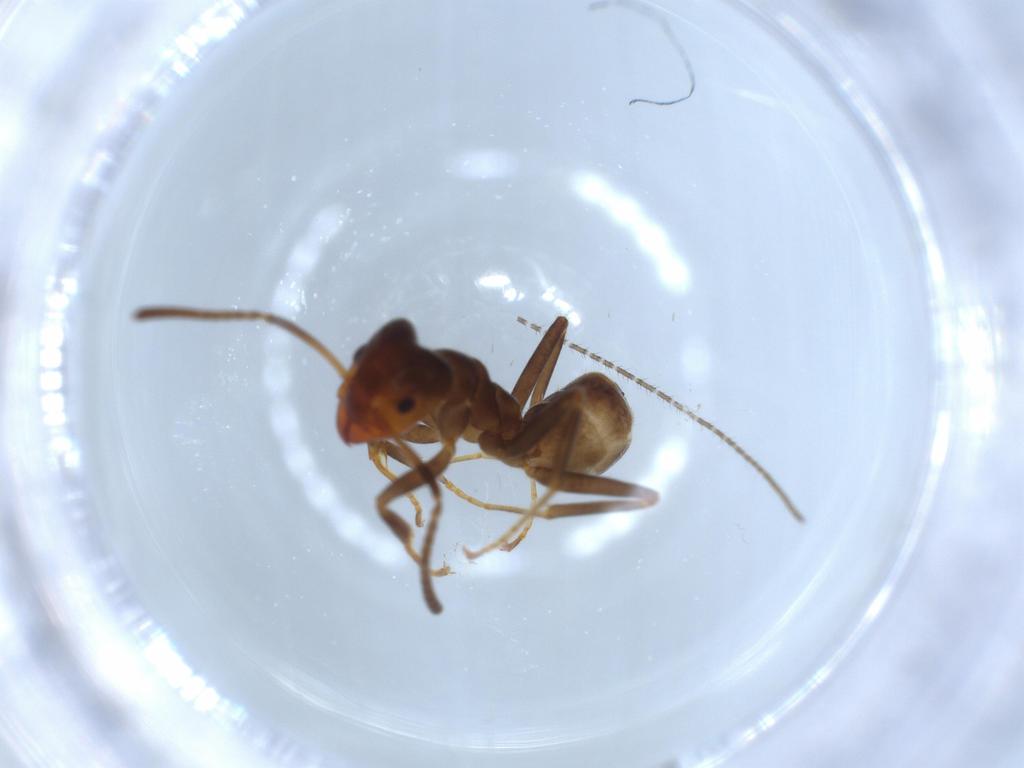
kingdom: Animalia
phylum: Arthropoda
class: Insecta
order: Hymenoptera
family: Formicidae
